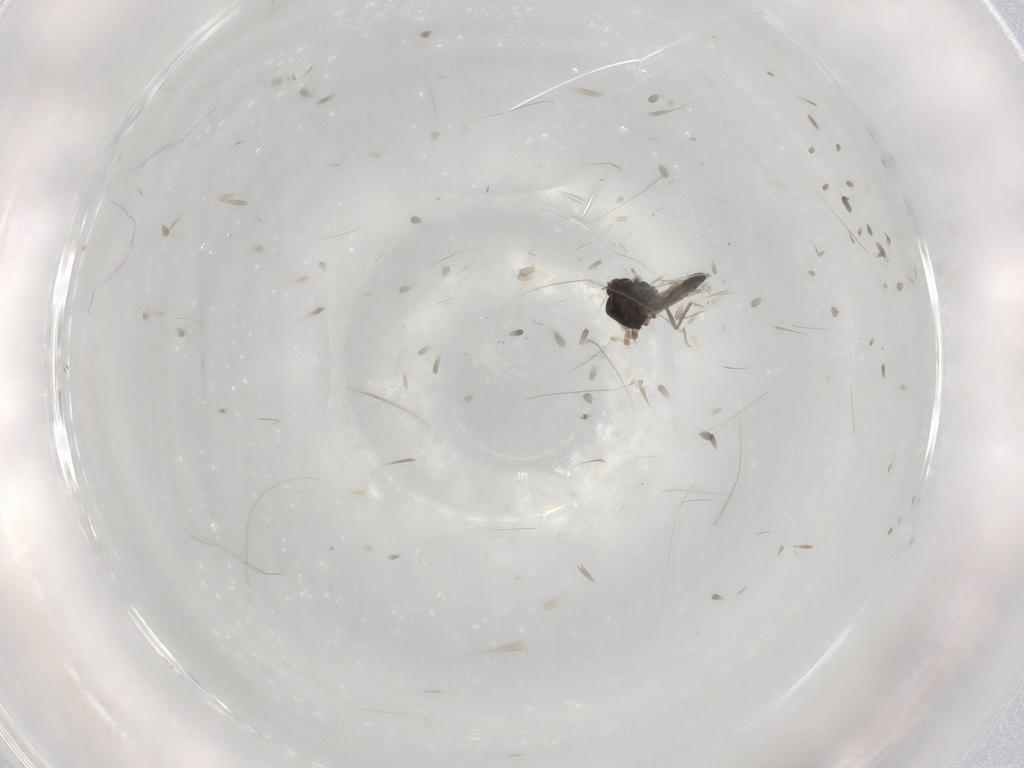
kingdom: Animalia
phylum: Arthropoda
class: Insecta
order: Diptera
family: Ceratopogonidae
